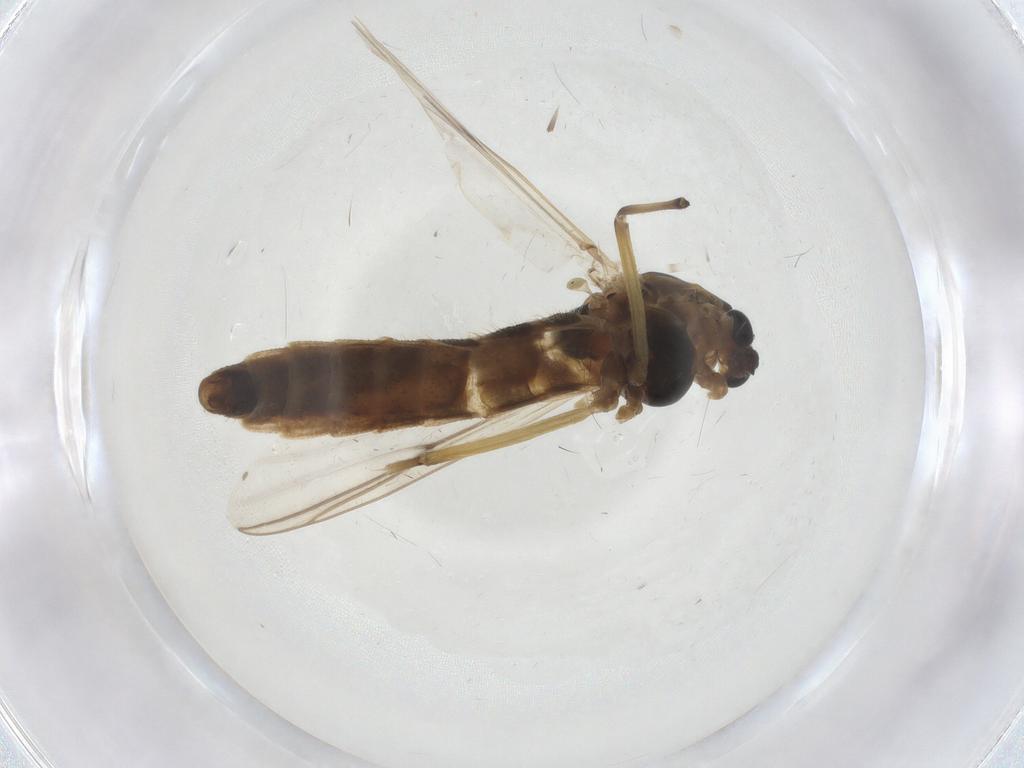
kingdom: Animalia
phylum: Arthropoda
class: Insecta
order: Diptera
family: Chironomidae
